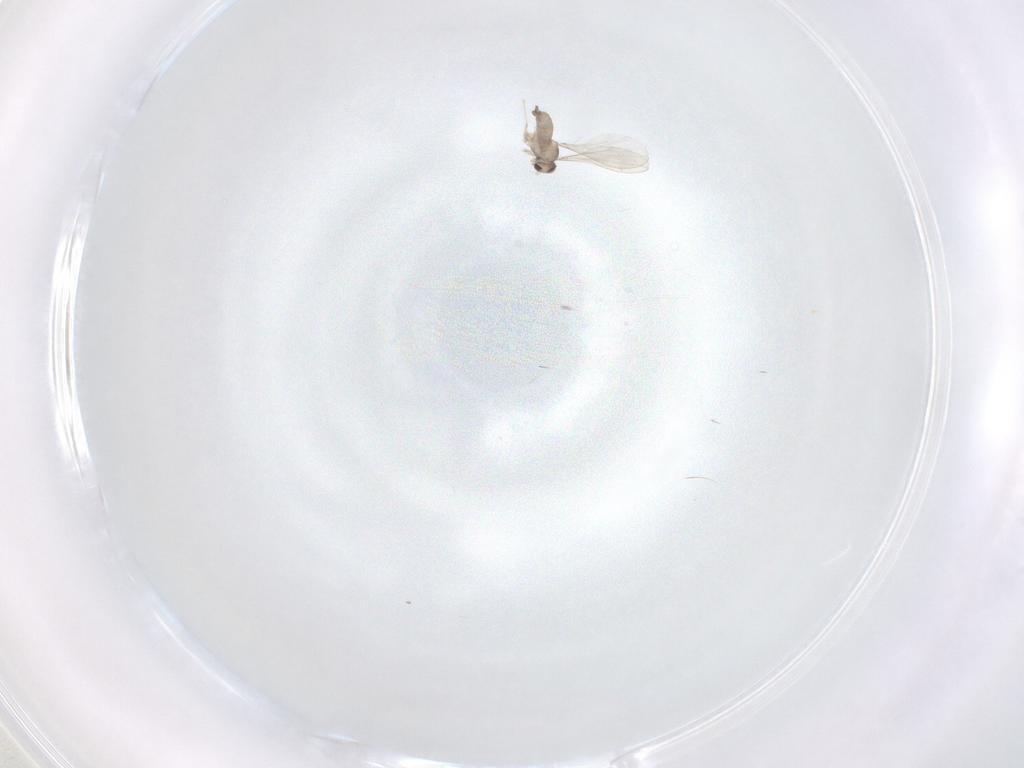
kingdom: Animalia
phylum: Arthropoda
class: Insecta
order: Diptera
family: Cecidomyiidae
